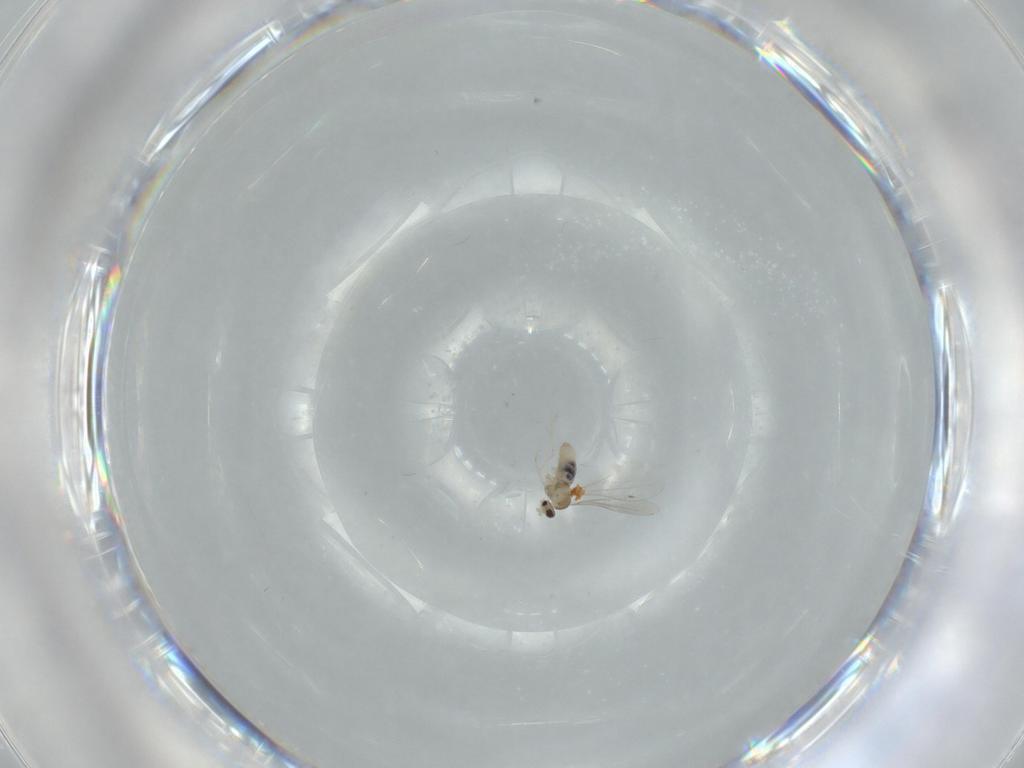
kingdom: Animalia
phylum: Arthropoda
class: Insecta
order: Diptera
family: Cecidomyiidae
